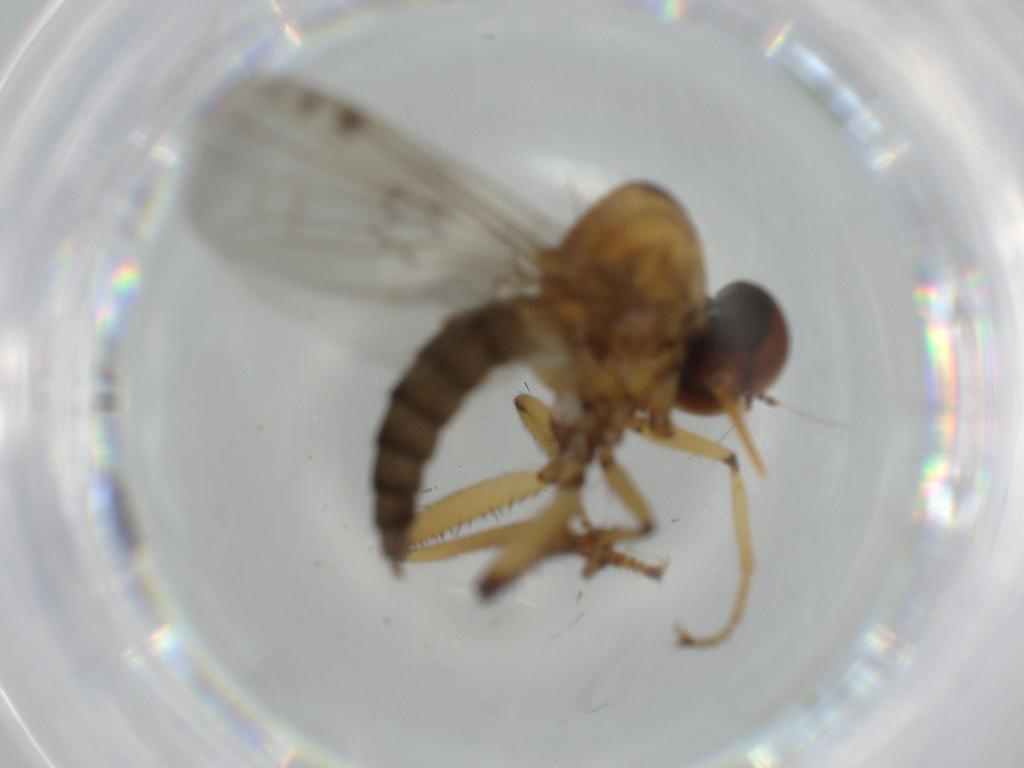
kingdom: Animalia
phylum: Arthropoda
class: Insecta
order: Diptera
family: Hybotidae
